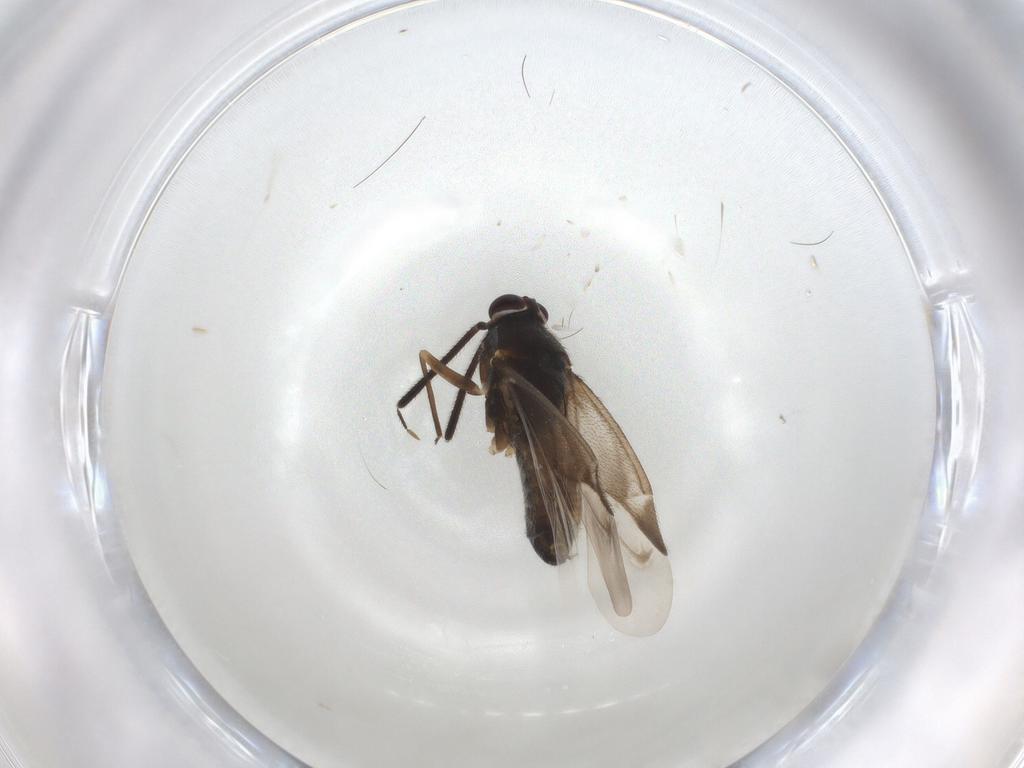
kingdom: Animalia
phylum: Arthropoda
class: Insecta
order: Hemiptera
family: Miridae
